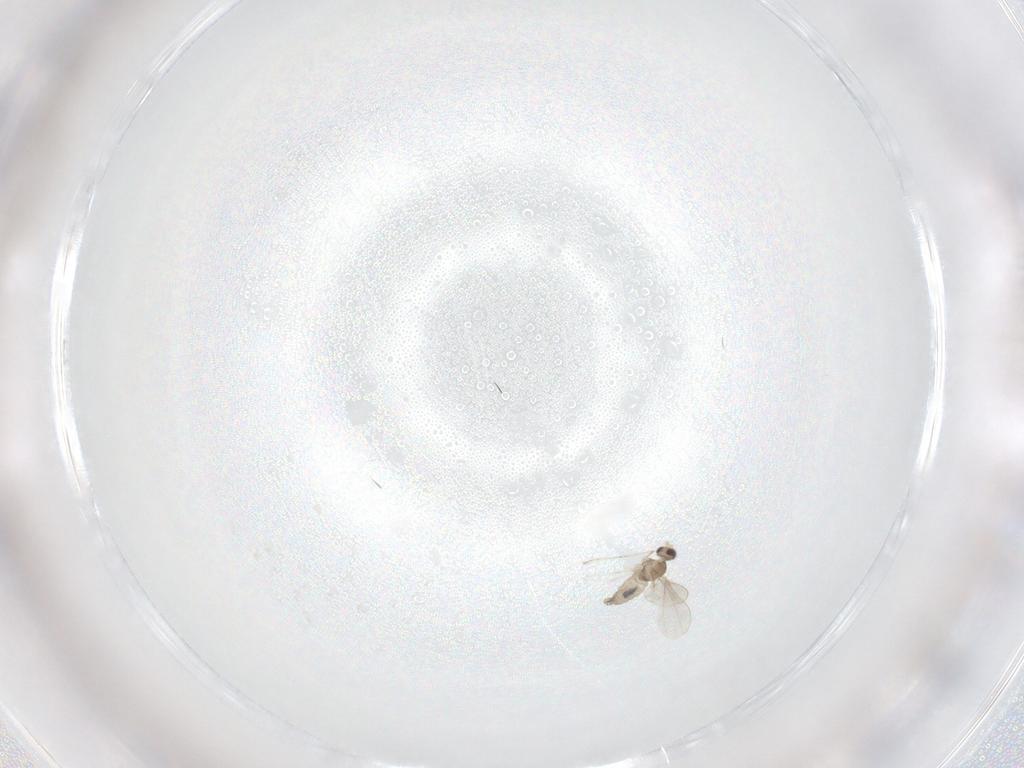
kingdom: Animalia
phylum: Arthropoda
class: Insecta
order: Diptera
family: Cecidomyiidae
